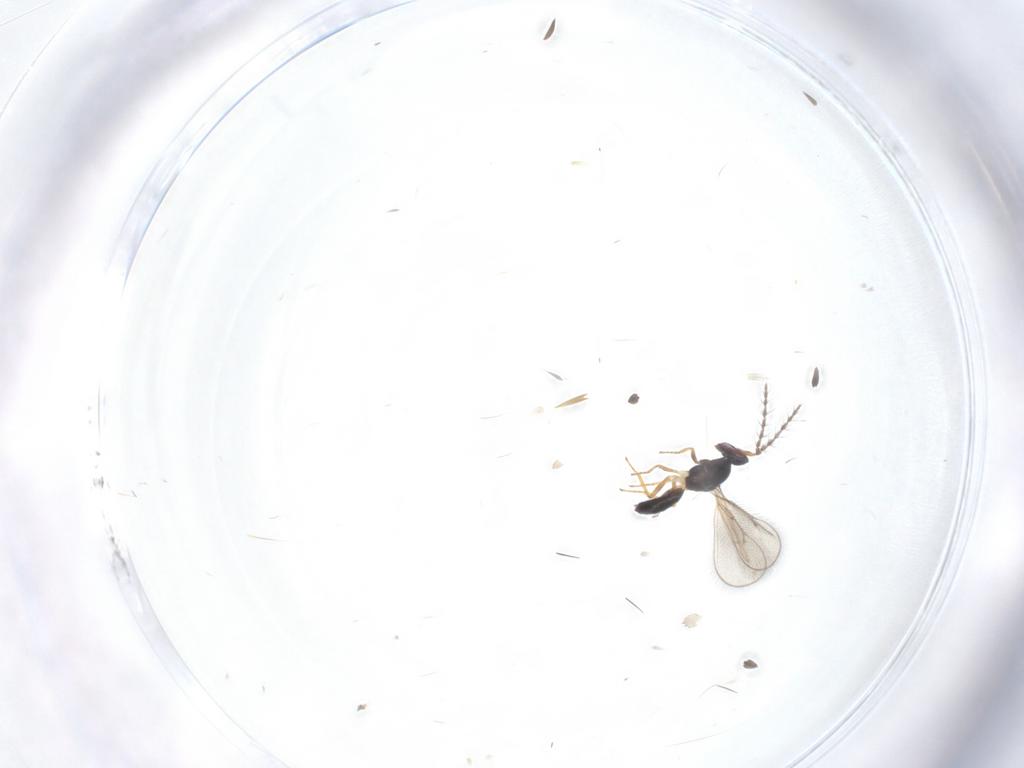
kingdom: Animalia
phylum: Arthropoda
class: Insecta
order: Hymenoptera
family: Eulophidae
